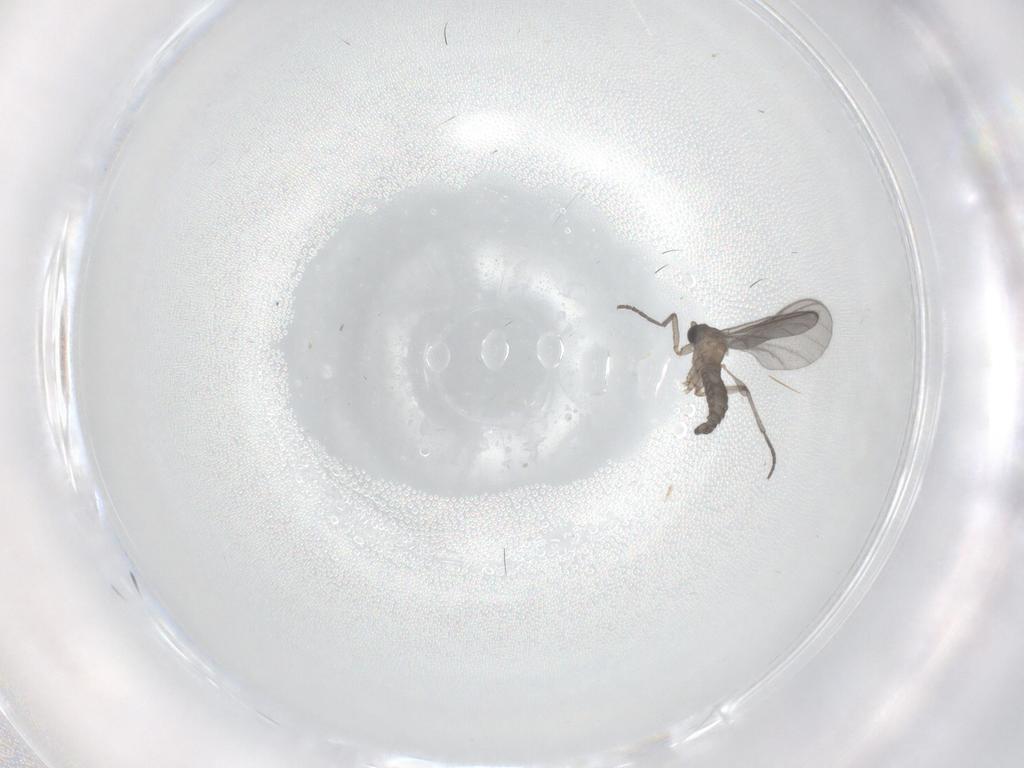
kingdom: Animalia
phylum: Arthropoda
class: Insecta
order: Diptera
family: Sciaridae
